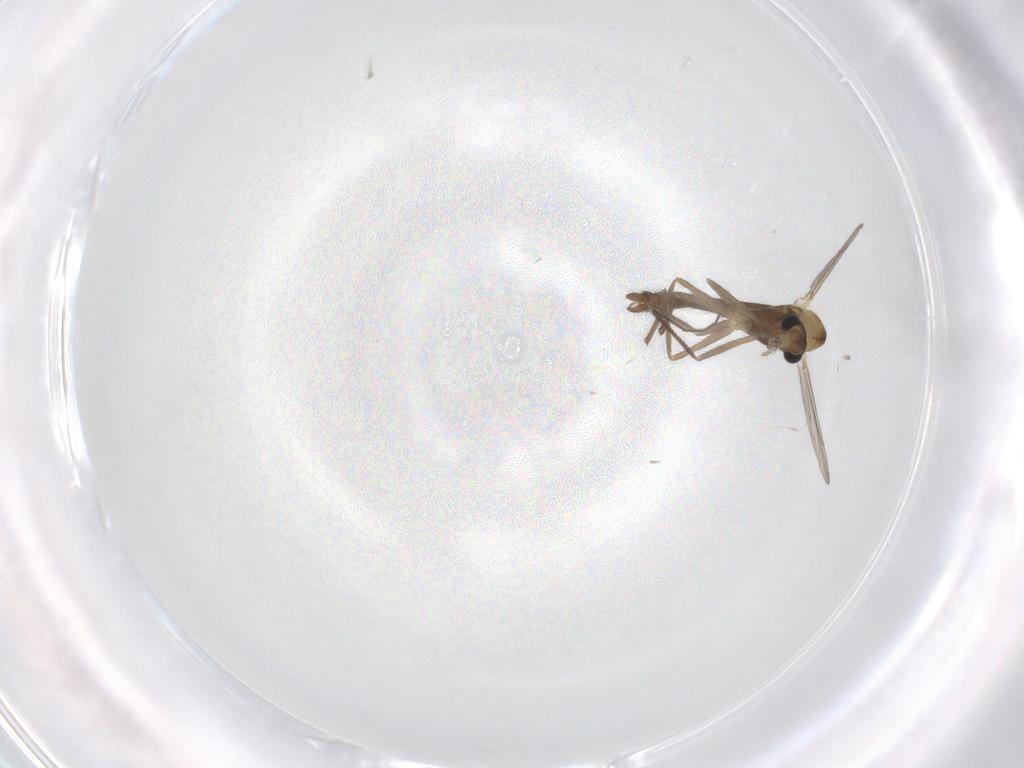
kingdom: Animalia
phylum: Arthropoda
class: Insecta
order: Diptera
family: Chironomidae
